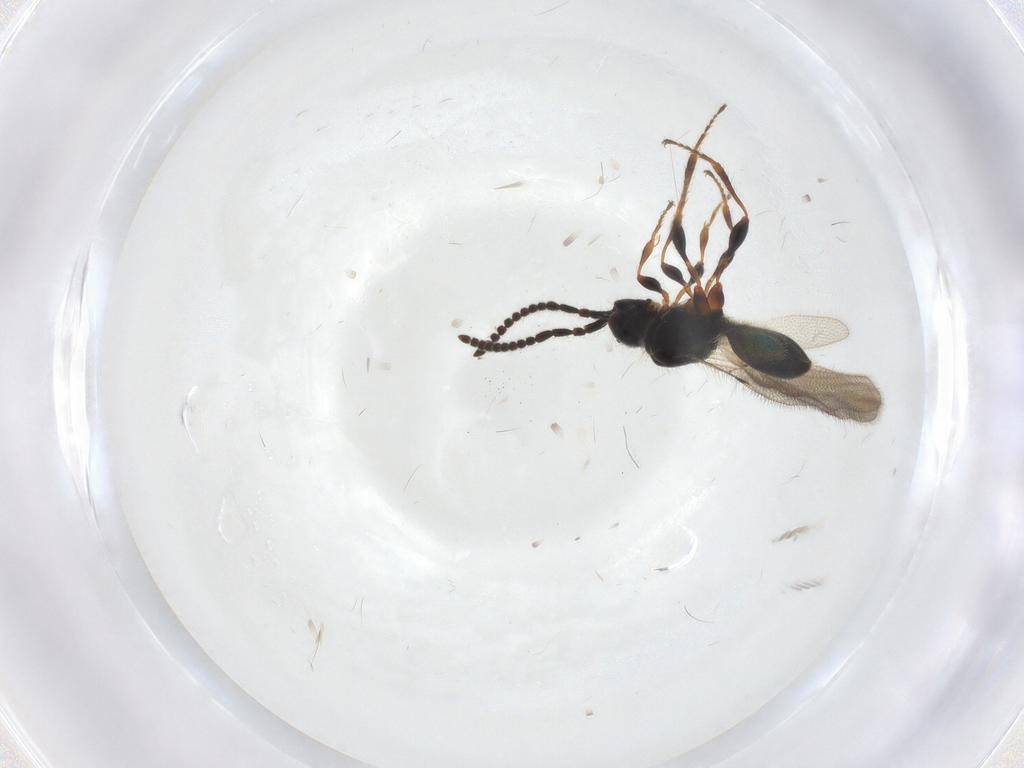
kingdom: Animalia
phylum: Arthropoda
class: Insecta
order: Hymenoptera
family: Diapriidae
